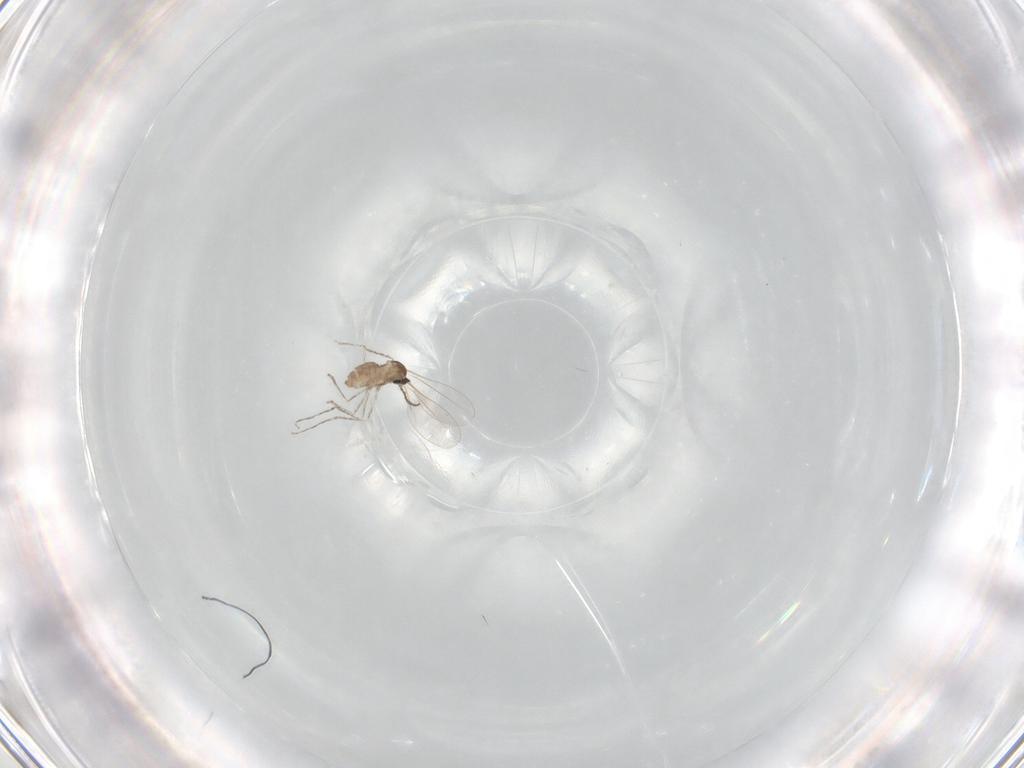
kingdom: Animalia
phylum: Arthropoda
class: Insecta
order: Diptera
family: Cecidomyiidae
